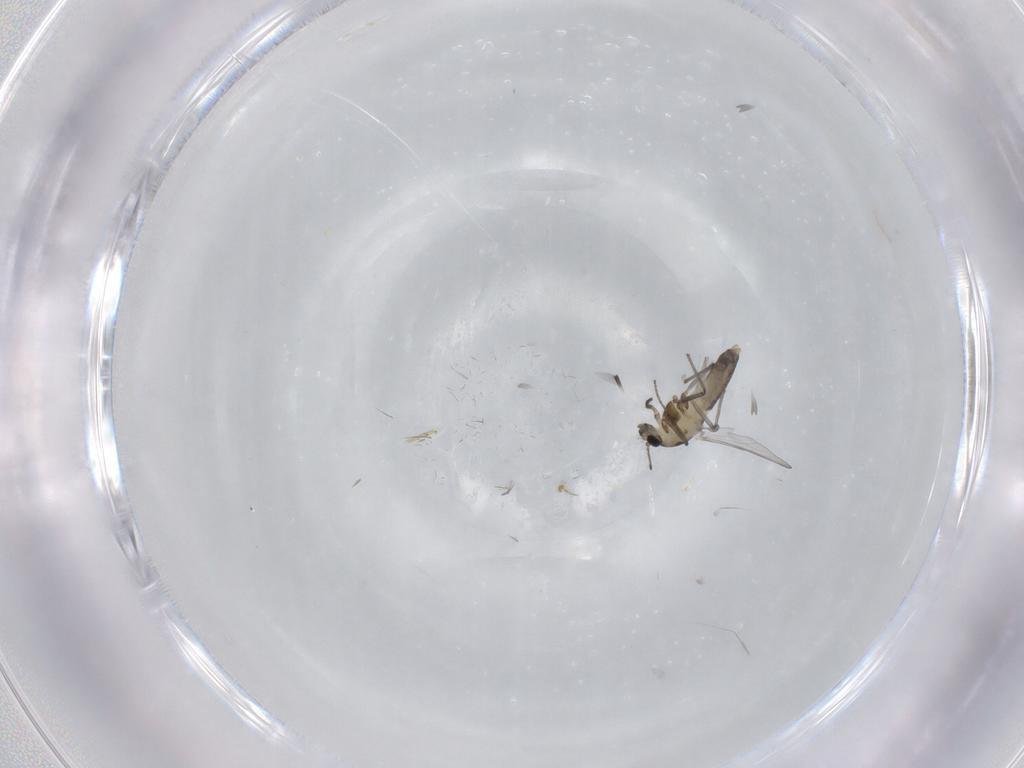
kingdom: Animalia
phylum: Arthropoda
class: Insecta
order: Diptera
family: Chironomidae
